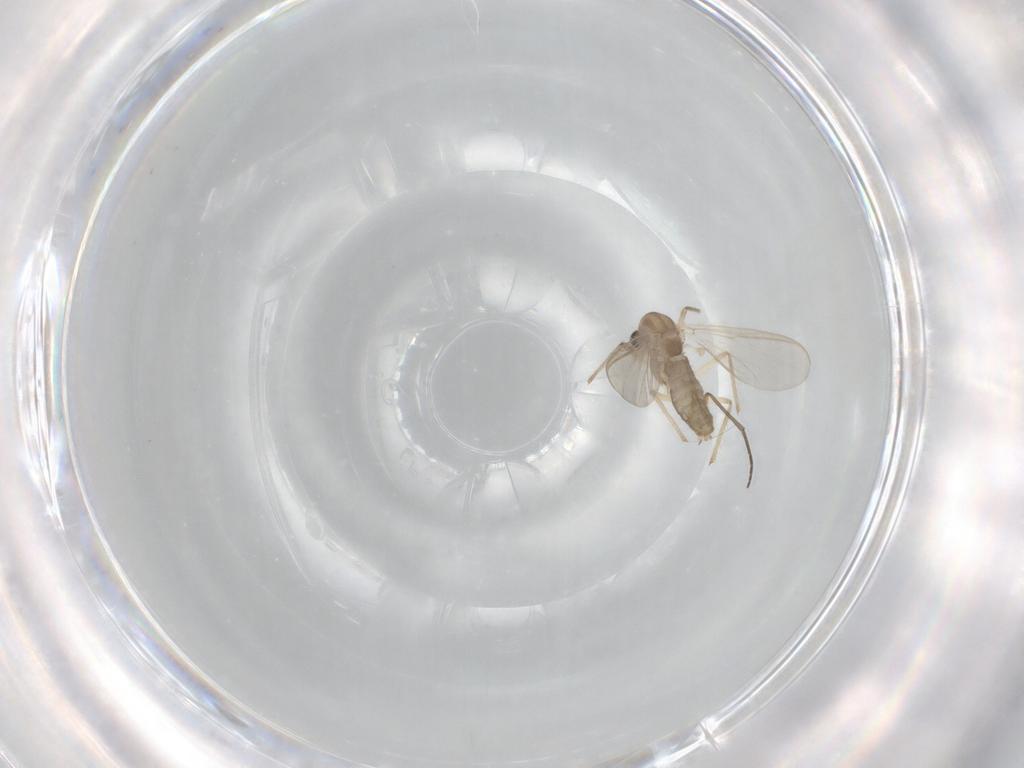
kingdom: Animalia
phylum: Arthropoda
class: Insecta
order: Diptera
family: Chironomidae
